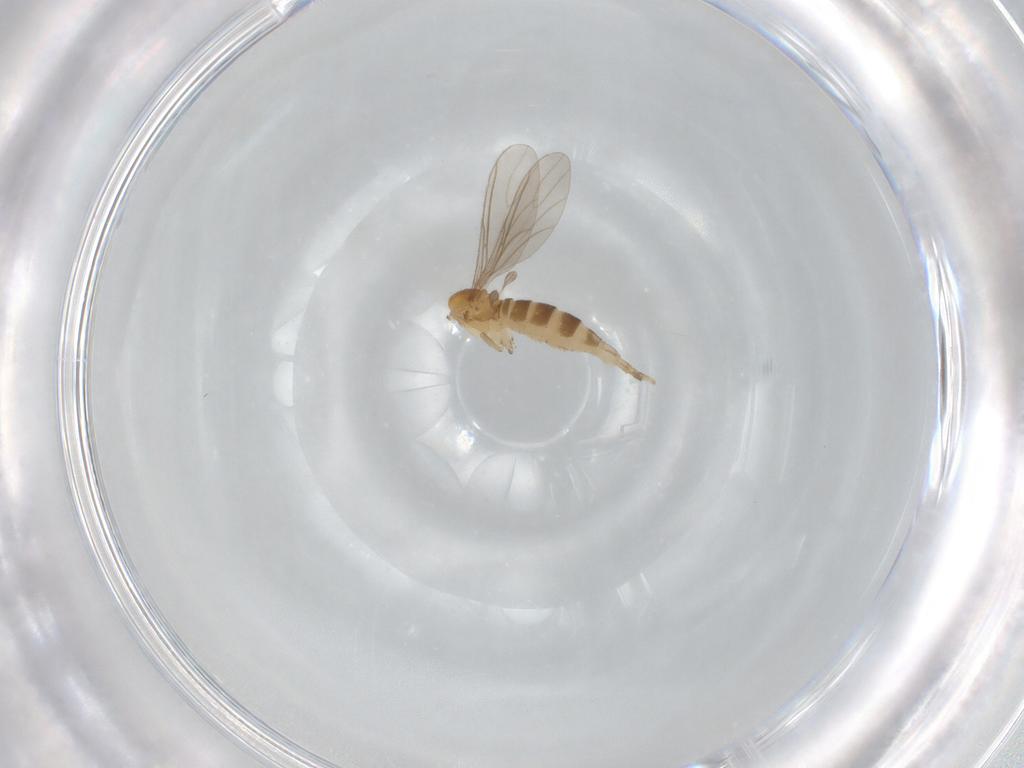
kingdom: Animalia
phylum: Arthropoda
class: Insecta
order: Diptera
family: Sciaridae
